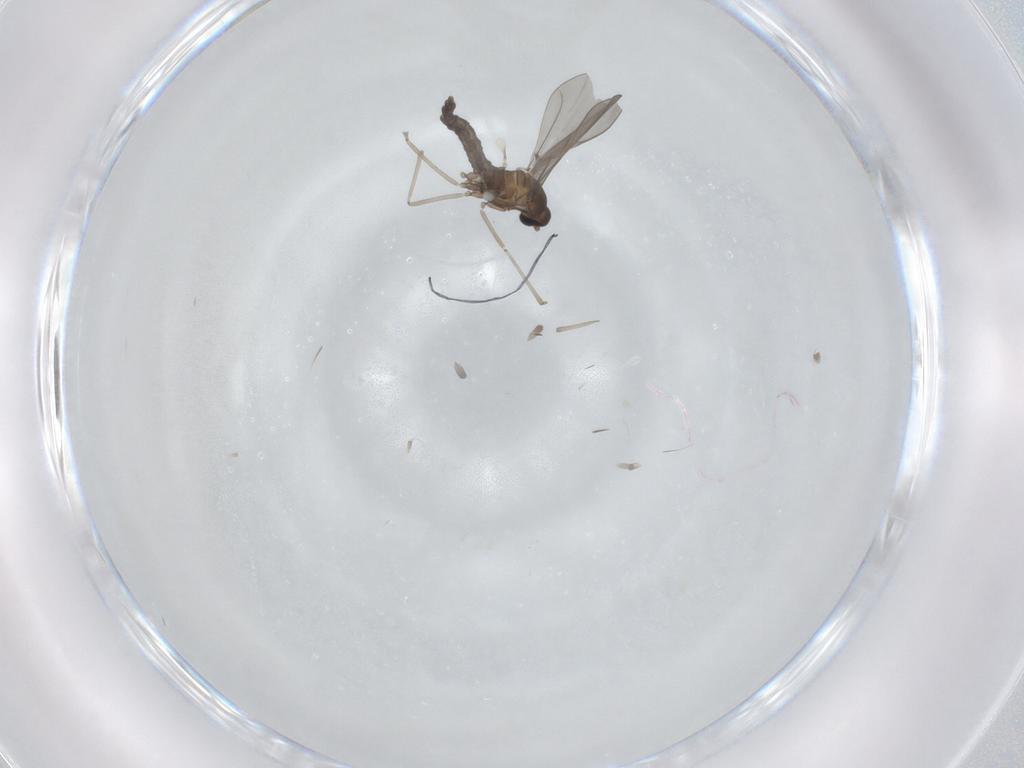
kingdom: Animalia
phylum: Arthropoda
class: Insecta
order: Diptera
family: Cecidomyiidae
